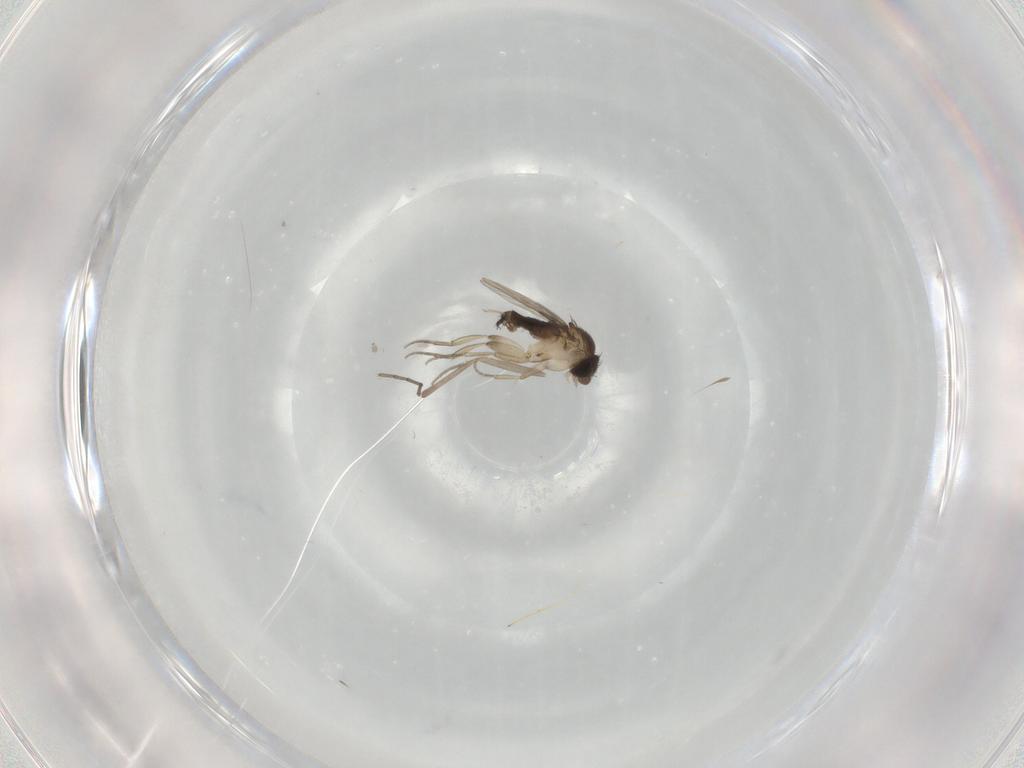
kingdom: Animalia
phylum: Arthropoda
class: Insecta
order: Diptera
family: Phoridae
